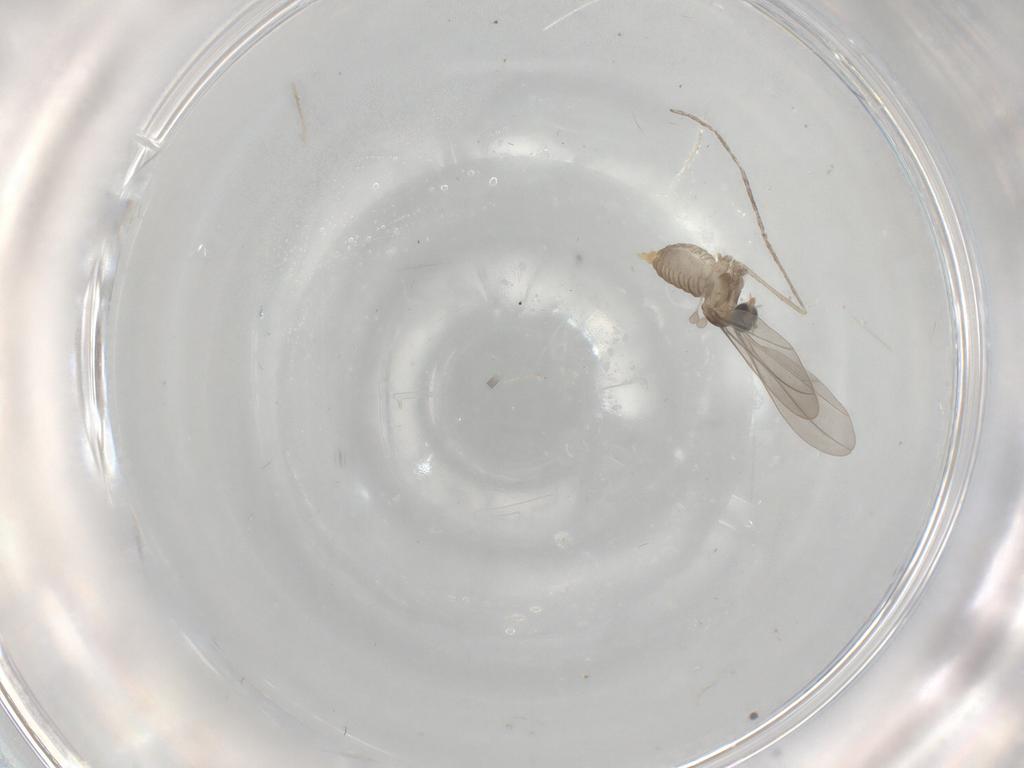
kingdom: Animalia
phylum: Arthropoda
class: Insecta
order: Diptera
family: Cecidomyiidae
